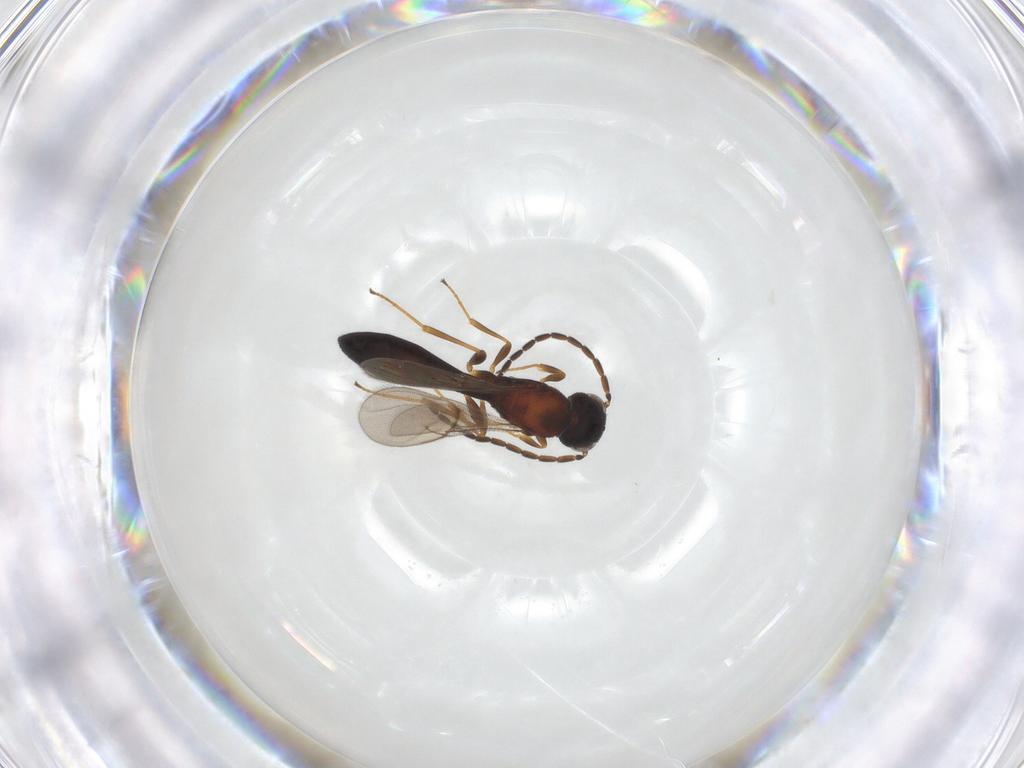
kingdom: Animalia
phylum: Arthropoda
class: Insecta
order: Hymenoptera
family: Scelionidae
